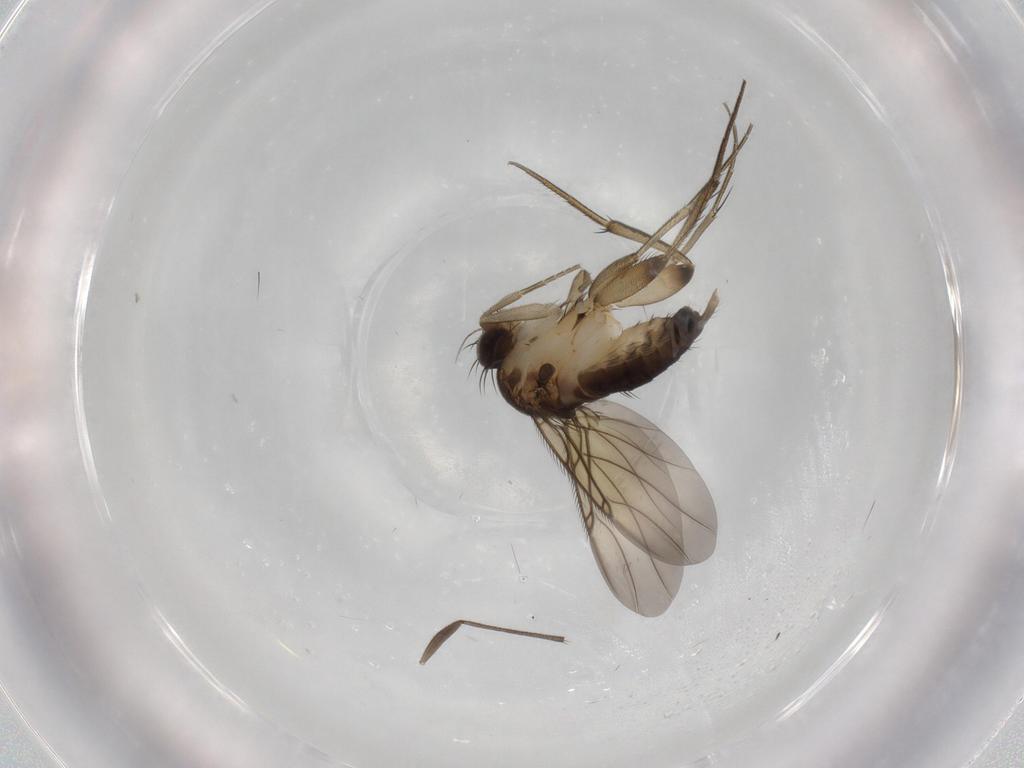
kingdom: Animalia
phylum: Arthropoda
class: Insecta
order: Diptera
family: Phoridae
